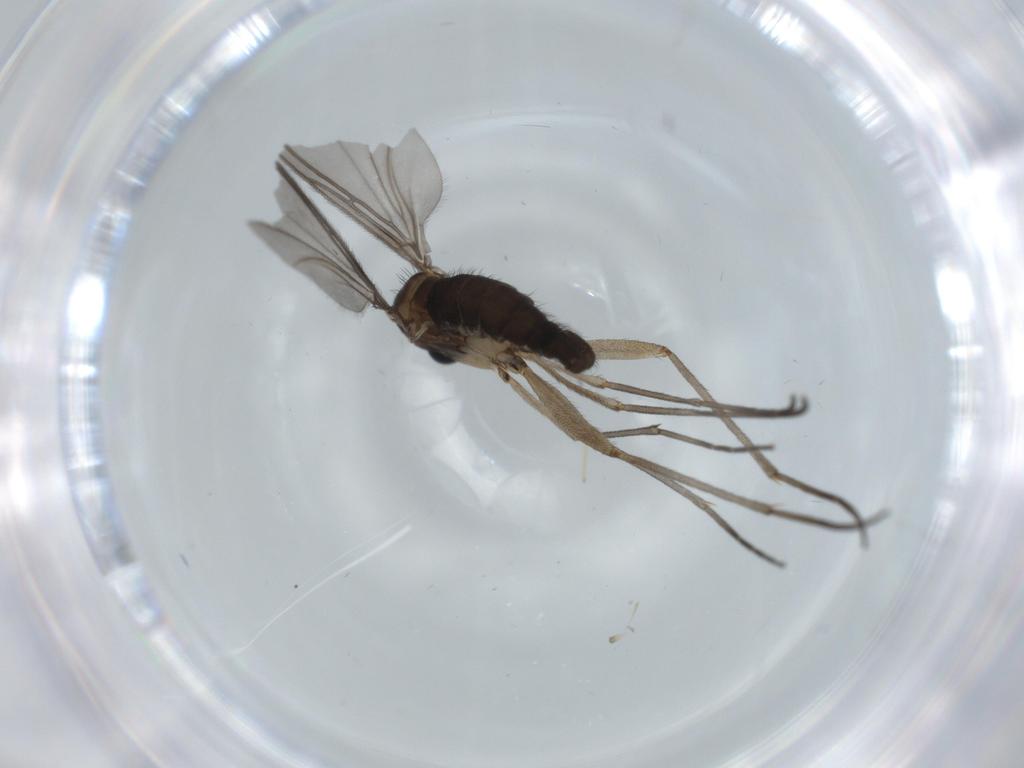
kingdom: Animalia
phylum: Arthropoda
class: Insecta
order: Diptera
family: Sciaridae
